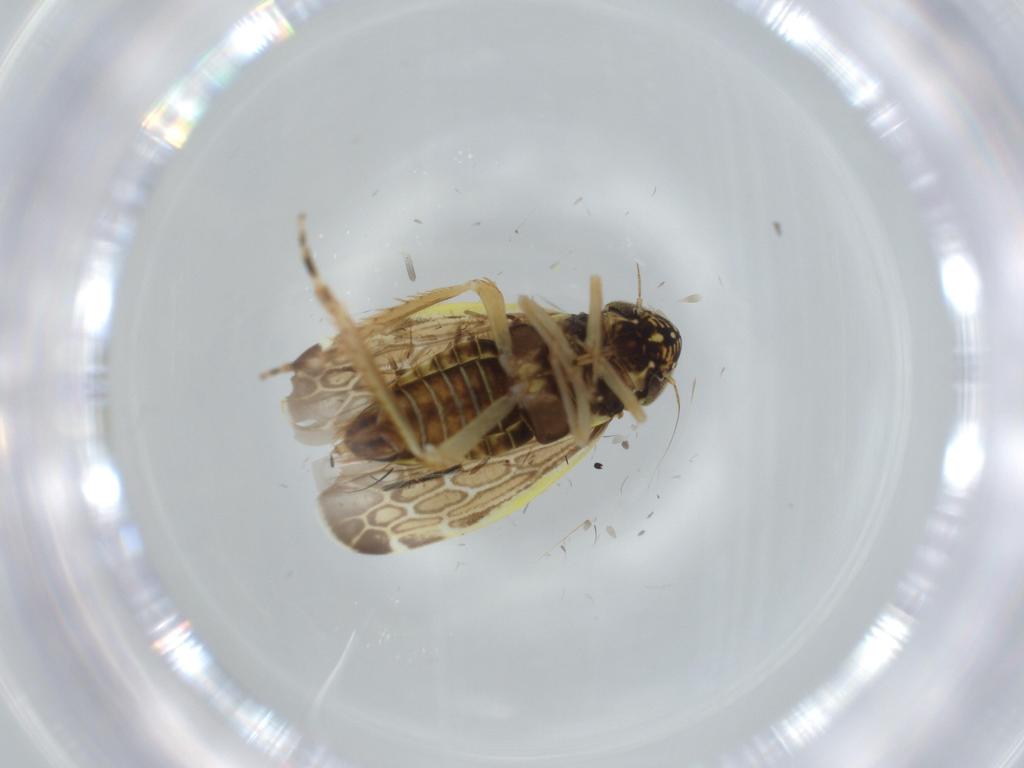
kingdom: Animalia
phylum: Arthropoda
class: Insecta
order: Hemiptera
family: Cicadellidae
